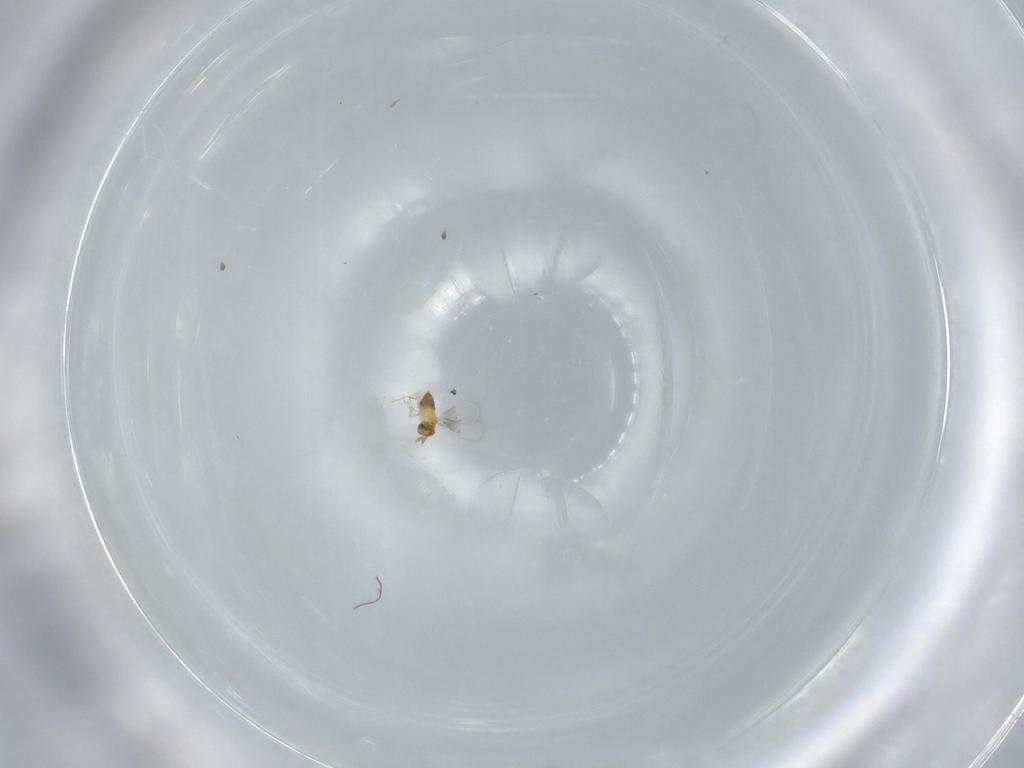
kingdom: Animalia
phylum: Arthropoda
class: Insecta
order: Hymenoptera
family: Trichogrammatidae
